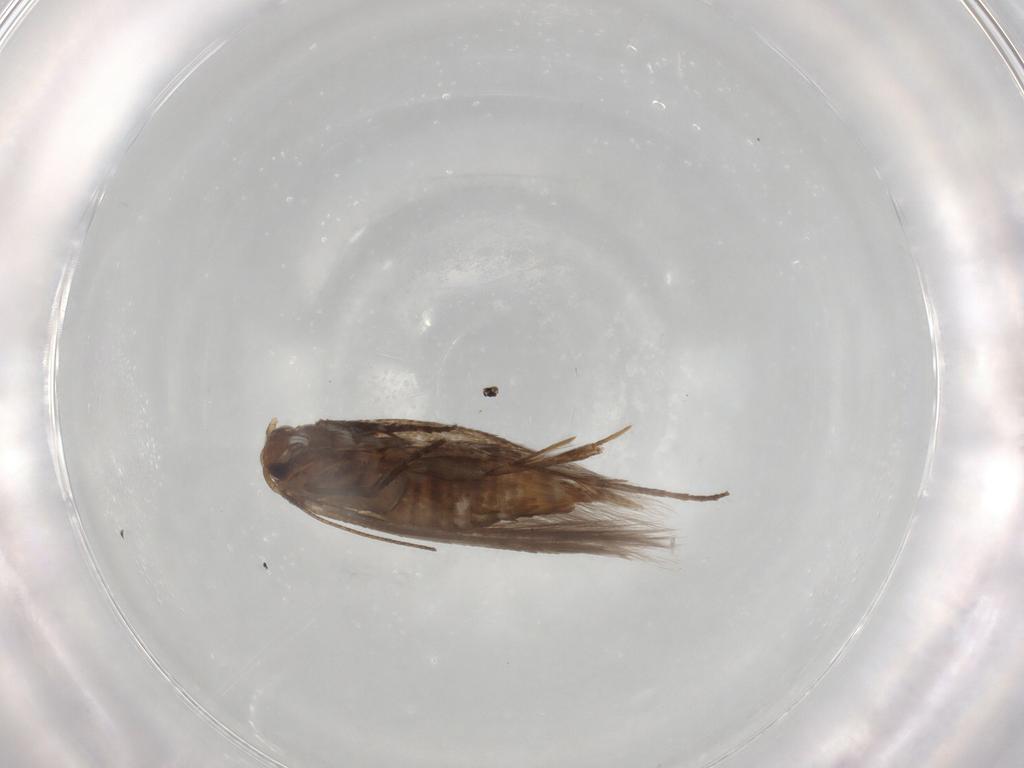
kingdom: Animalia
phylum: Arthropoda
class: Insecta
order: Lepidoptera
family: Bucculatricidae
